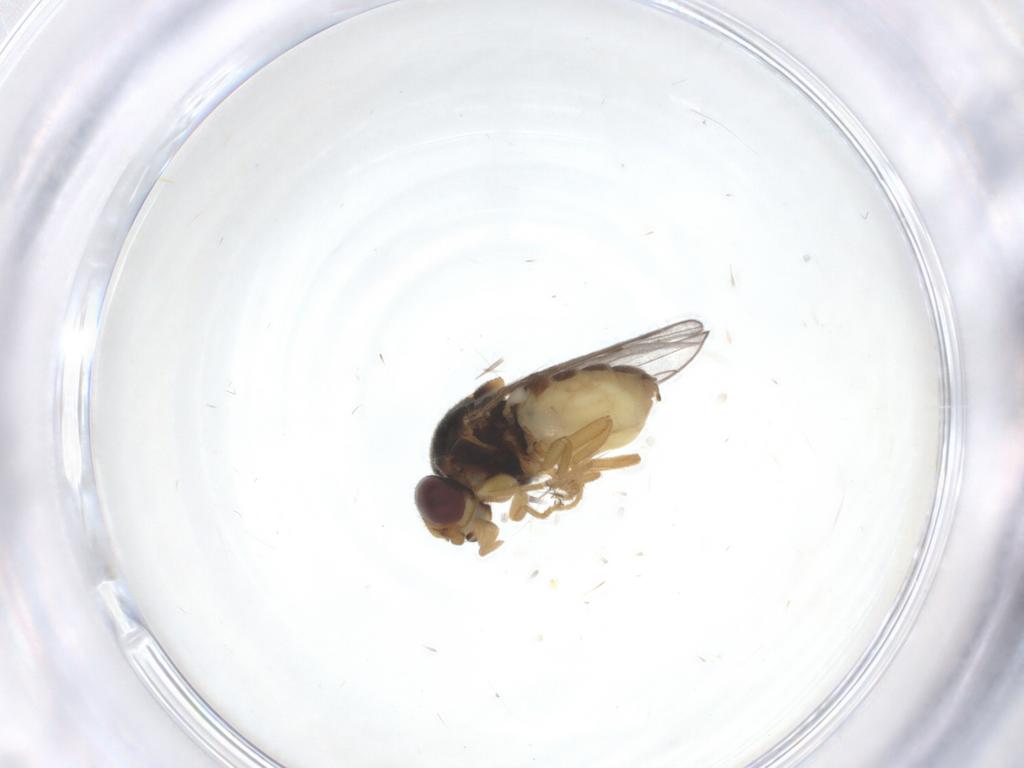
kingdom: Animalia
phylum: Arthropoda
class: Insecta
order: Diptera
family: Chloropidae
